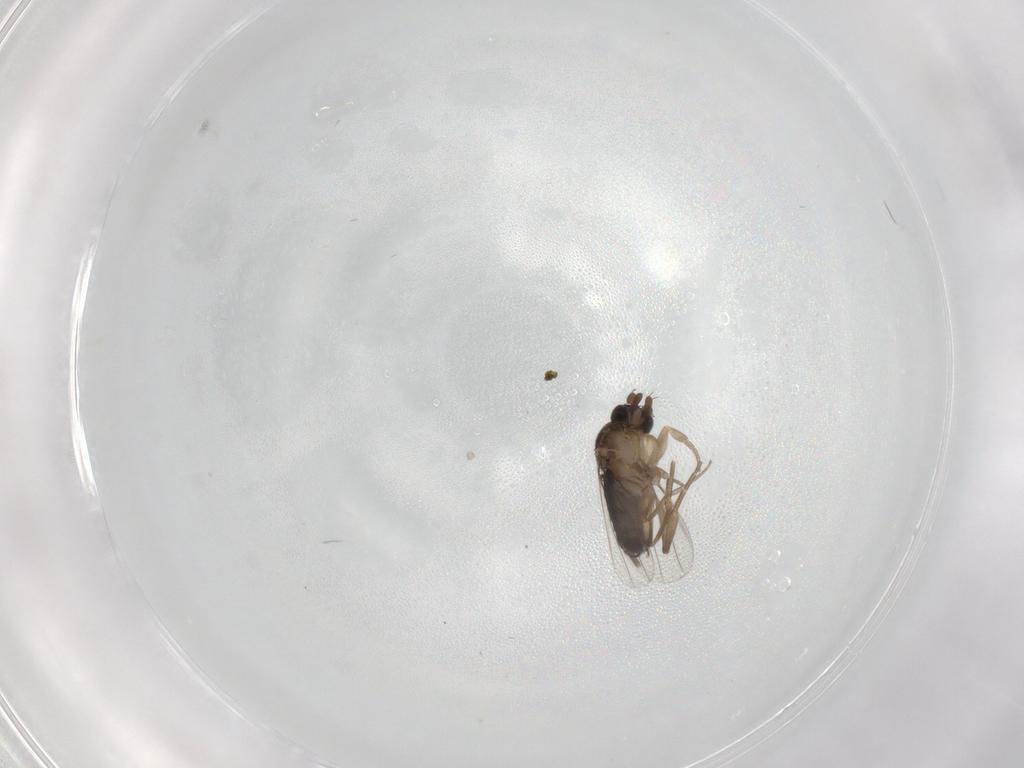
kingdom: Animalia
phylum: Arthropoda
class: Insecta
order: Diptera
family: Phoridae
